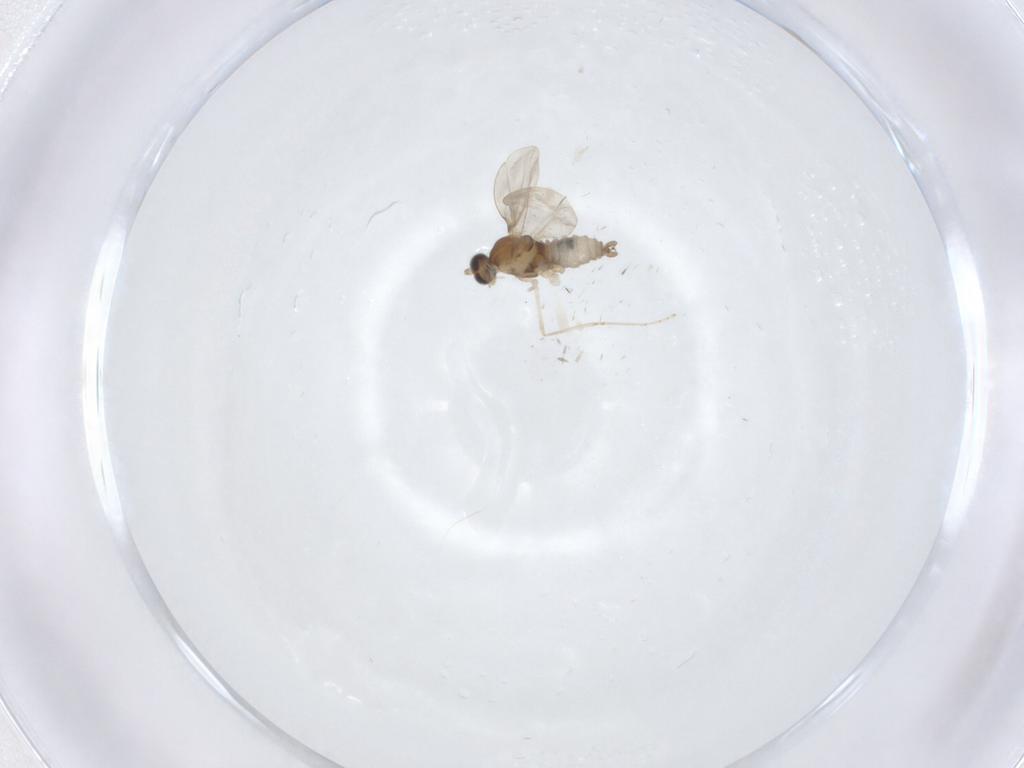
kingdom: Animalia
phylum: Arthropoda
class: Insecta
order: Diptera
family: Cecidomyiidae
